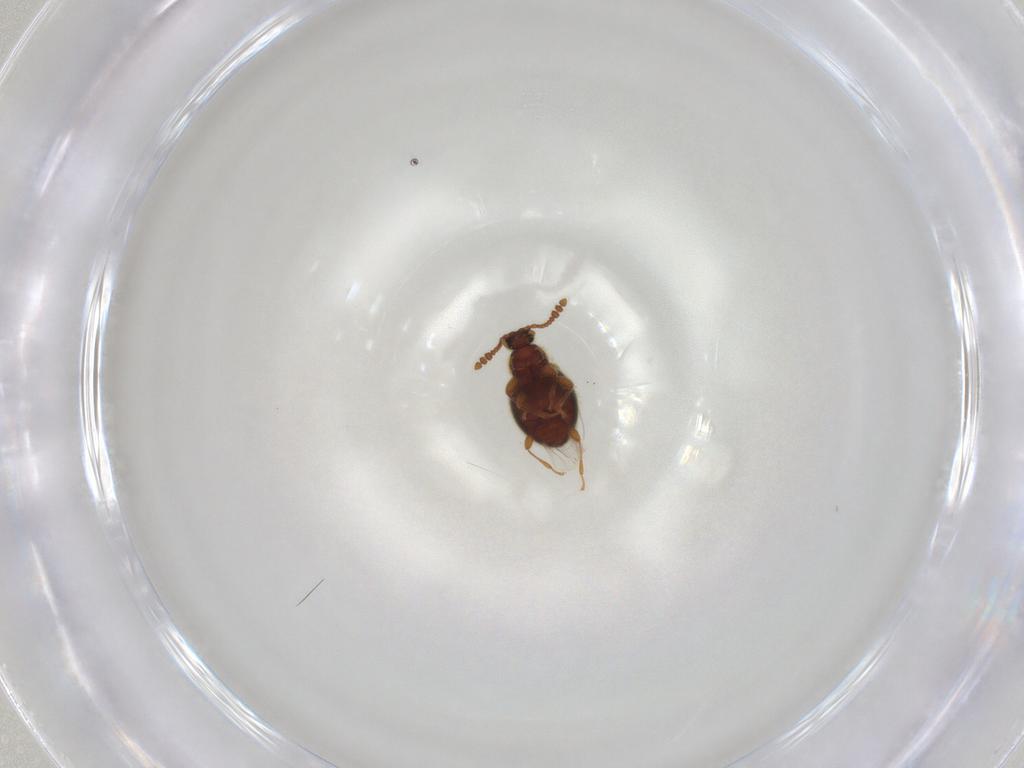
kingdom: Animalia
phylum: Arthropoda
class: Insecta
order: Coleoptera
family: Staphylinidae
